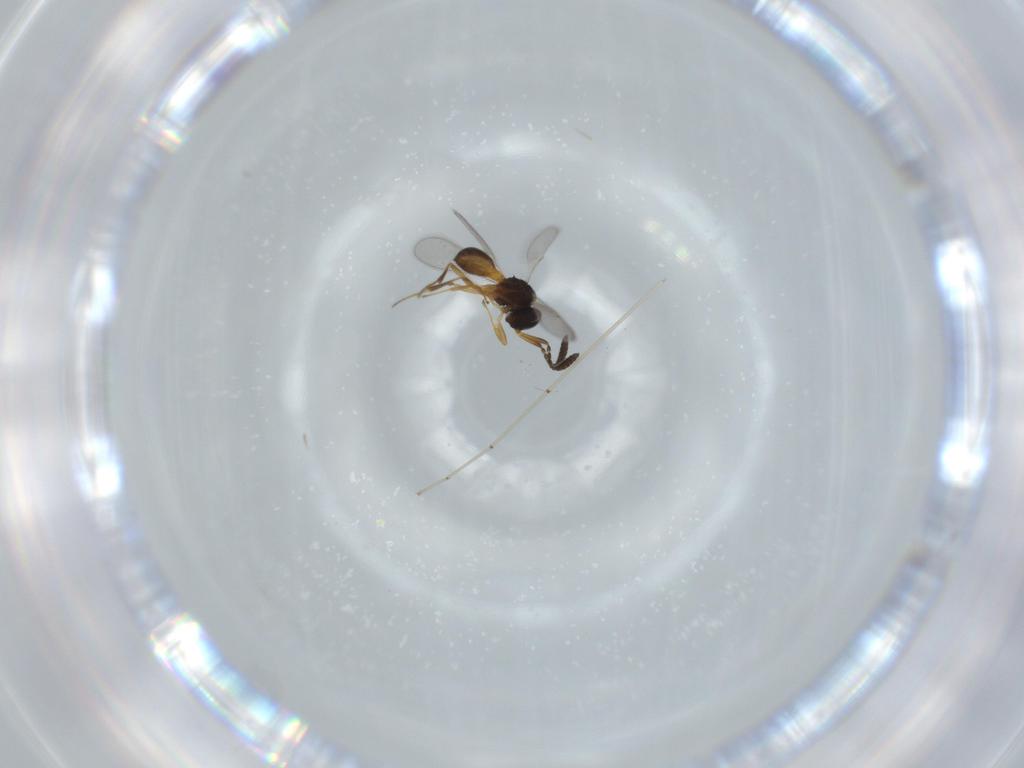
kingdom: Animalia
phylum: Arthropoda
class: Insecta
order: Hymenoptera
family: Scelionidae
